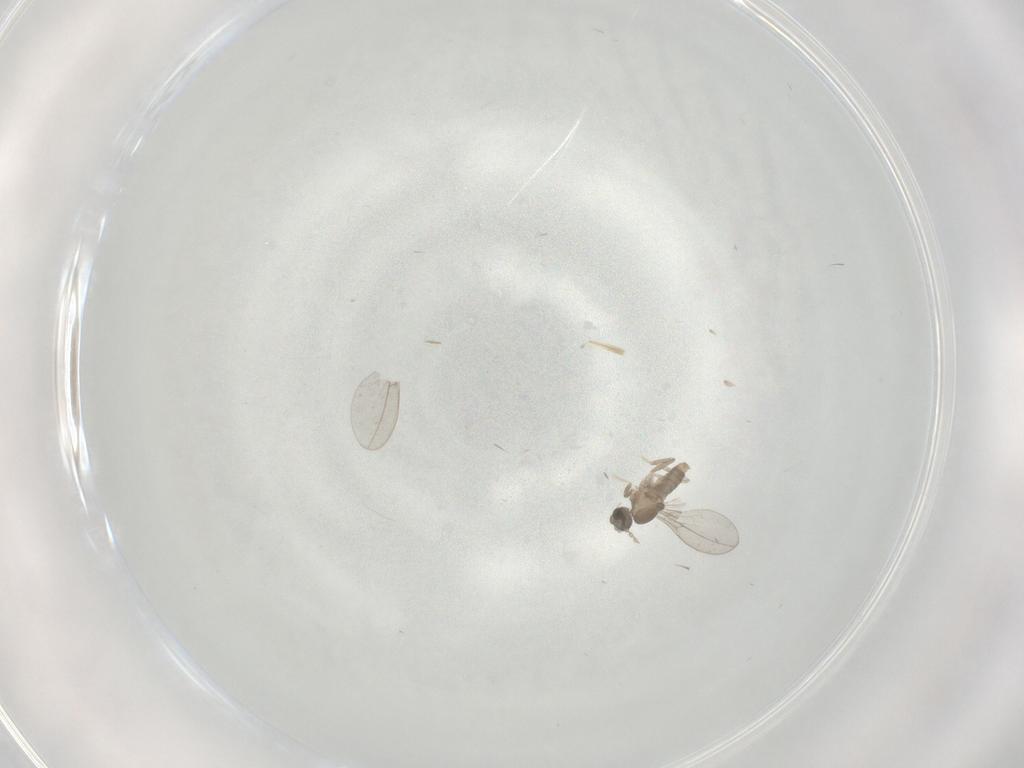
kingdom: Animalia
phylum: Arthropoda
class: Insecta
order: Diptera
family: Cecidomyiidae
